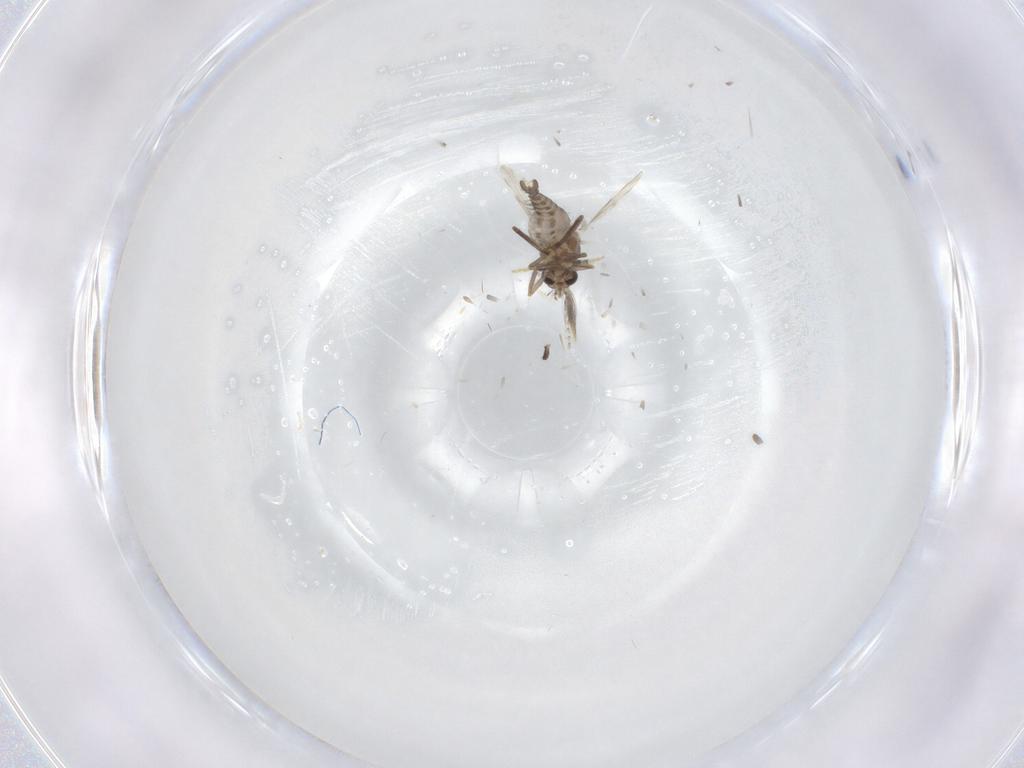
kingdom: Animalia
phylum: Arthropoda
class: Insecta
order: Diptera
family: Ceratopogonidae
